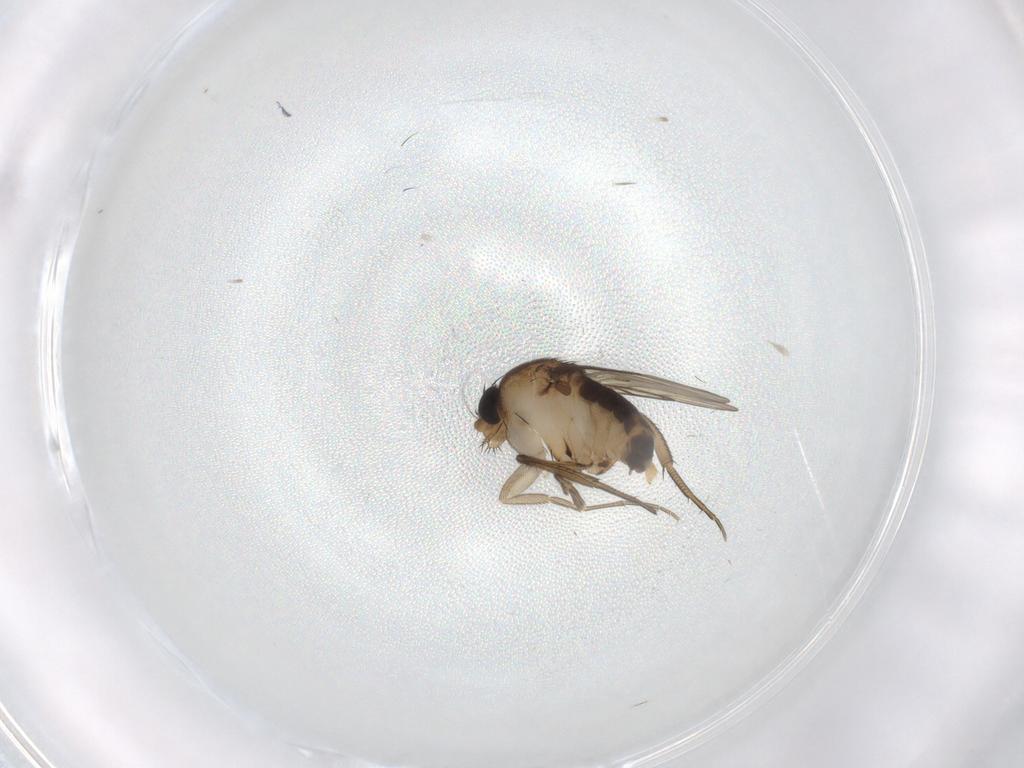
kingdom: Animalia
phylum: Arthropoda
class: Insecta
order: Diptera
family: Phoridae
